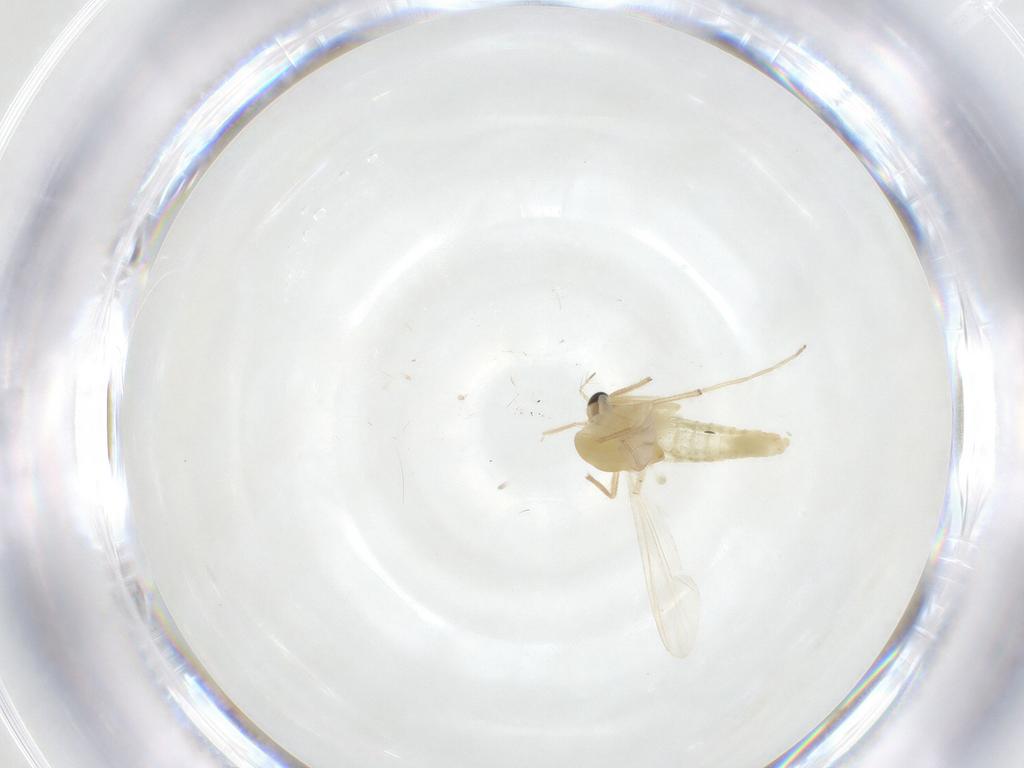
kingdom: Animalia
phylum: Arthropoda
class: Insecta
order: Diptera
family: Chironomidae
